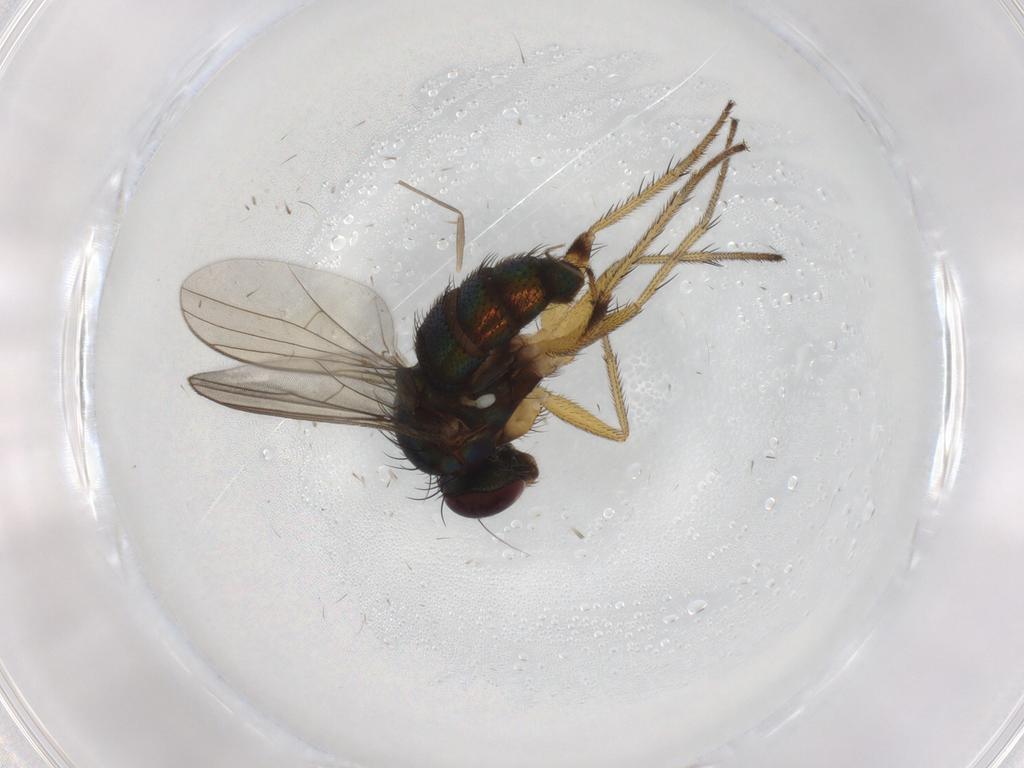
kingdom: Animalia
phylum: Arthropoda
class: Insecta
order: Diptera
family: Dolichopodidae
